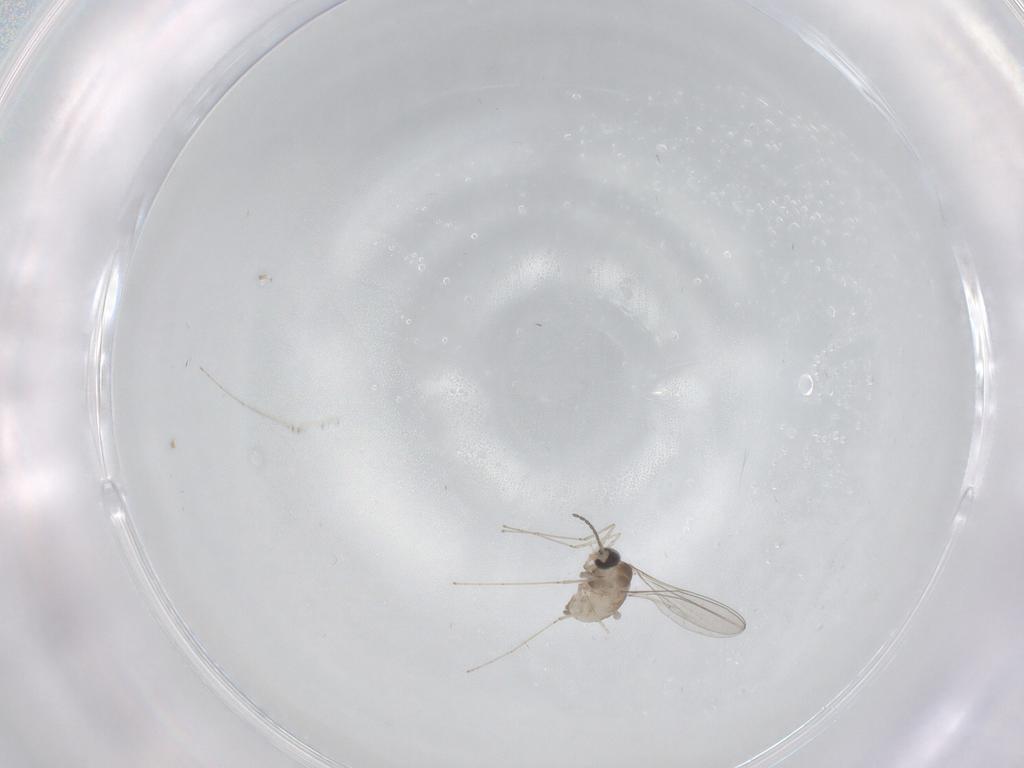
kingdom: Animalia
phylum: Arthropoda
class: Insecta
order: Diptera
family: Cecidomyiidae
